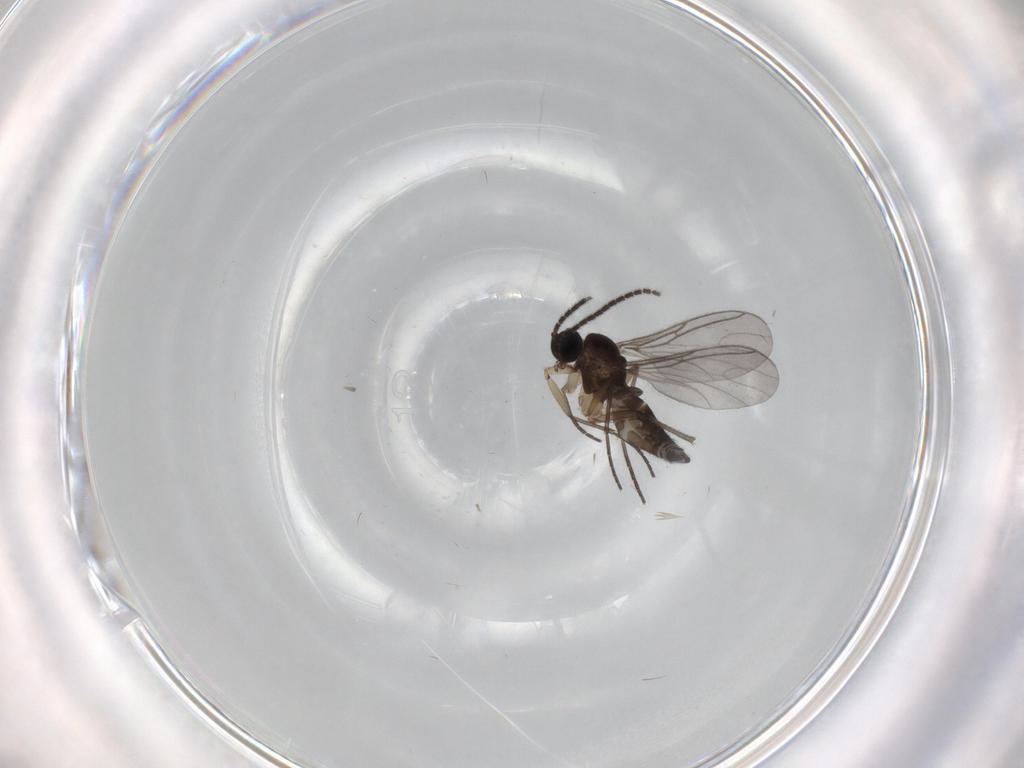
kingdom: Animalia
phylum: Arthropoda
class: Insecta
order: Diptera
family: Sciaridae
